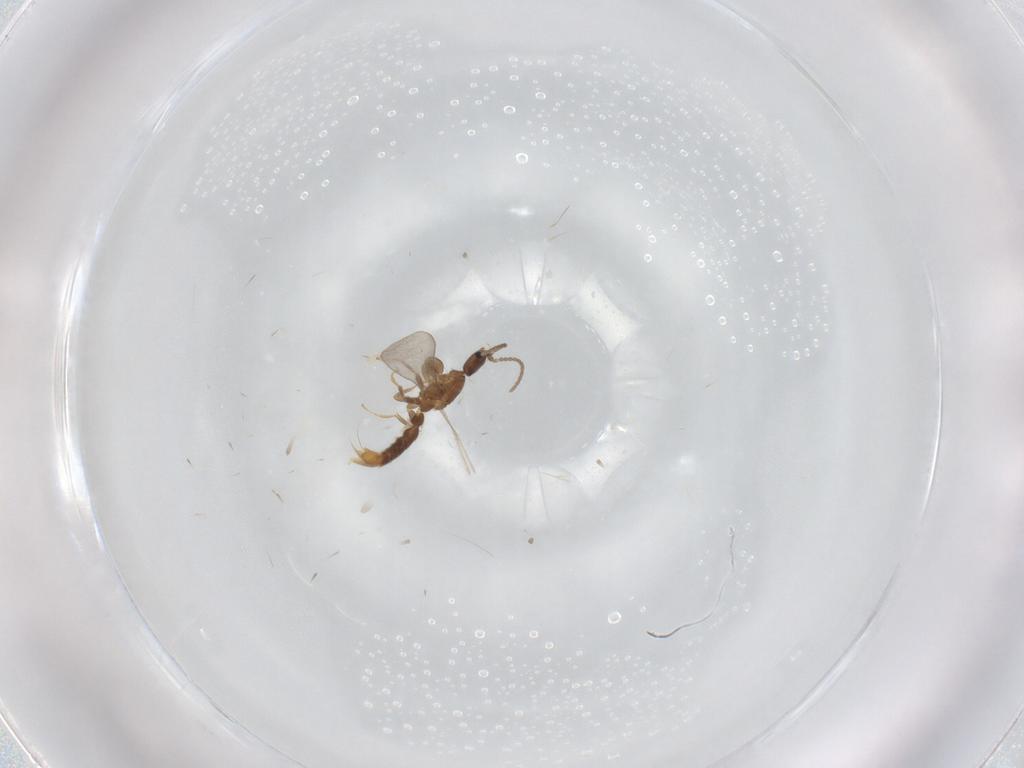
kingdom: Animalia
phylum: Arthropoda
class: Insecta
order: Hymenoptera
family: Formicidae
